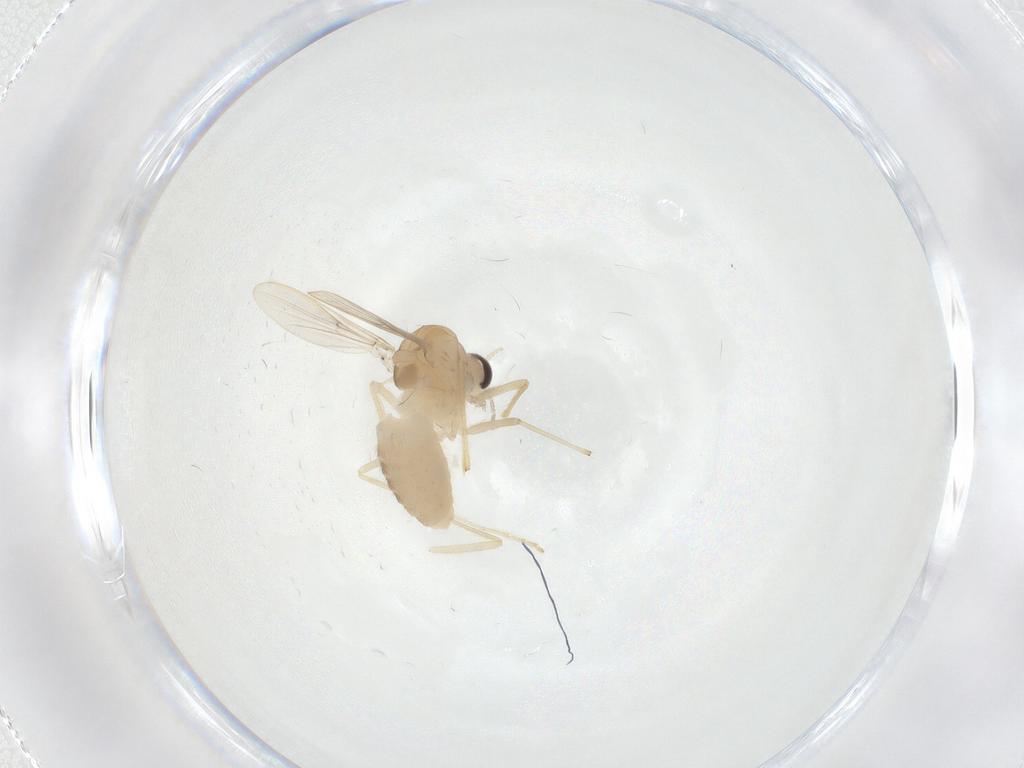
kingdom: Animalia
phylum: Arthropoda
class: Insecta
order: Diptera
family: Chironomidae
